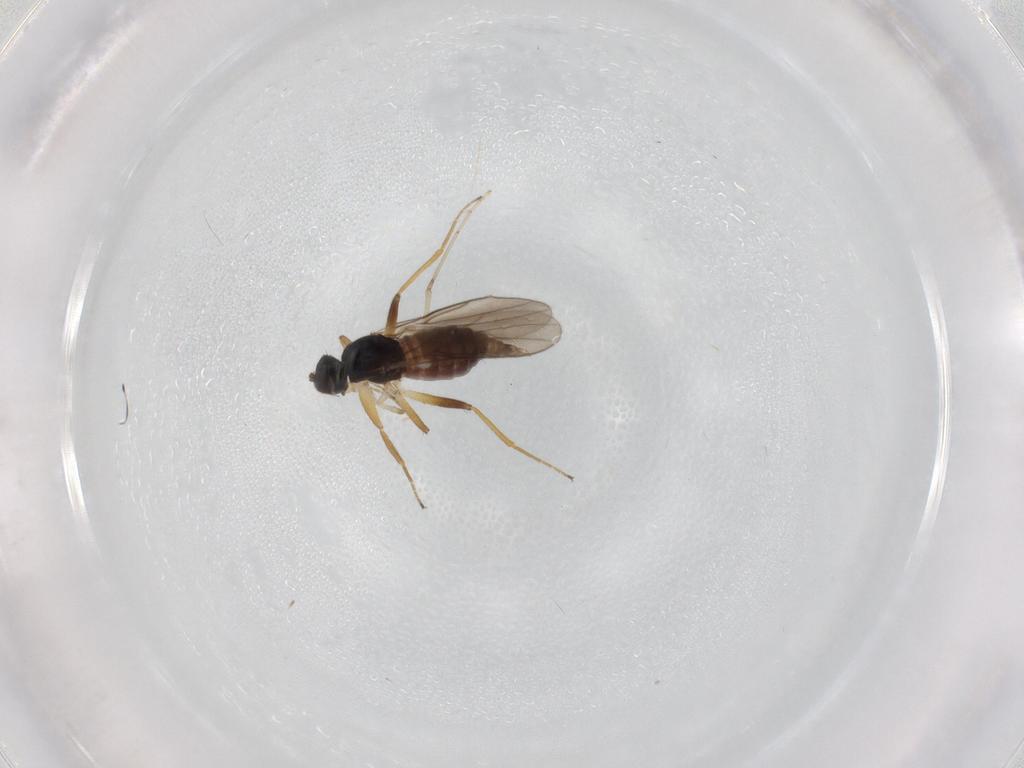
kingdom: Animalia
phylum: Arthropoda
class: Insecta
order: Diptera
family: Hybotidae
